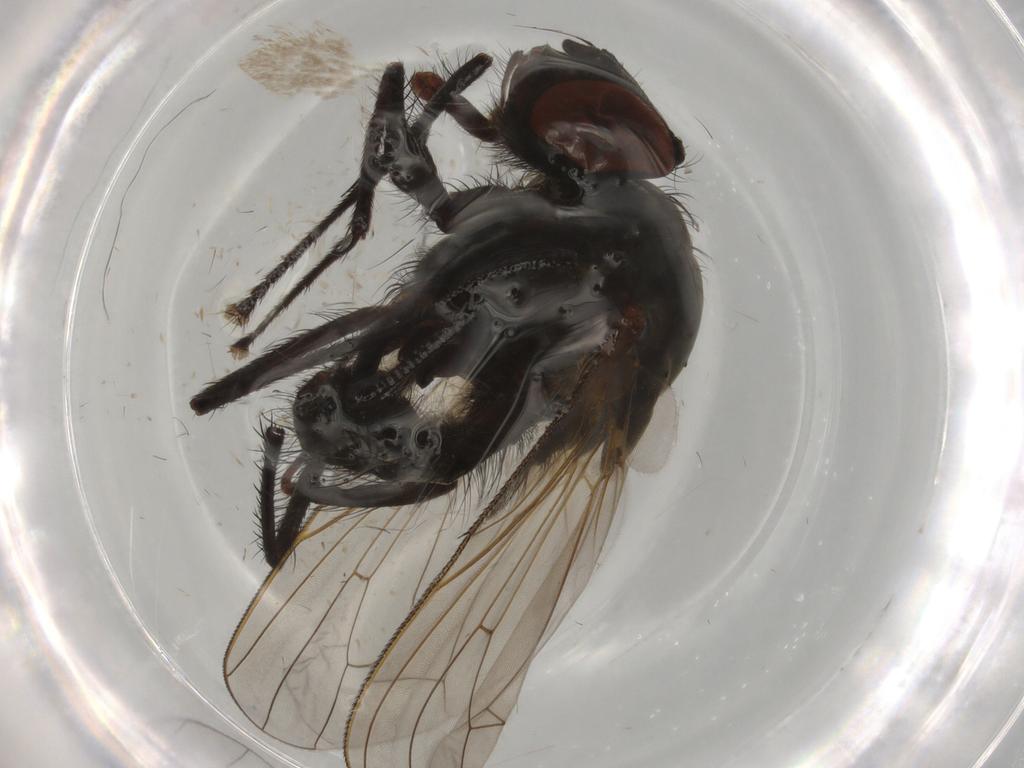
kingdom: Animalia
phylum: Arthropoda
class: Insecta
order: Diptera
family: Sciaridae
